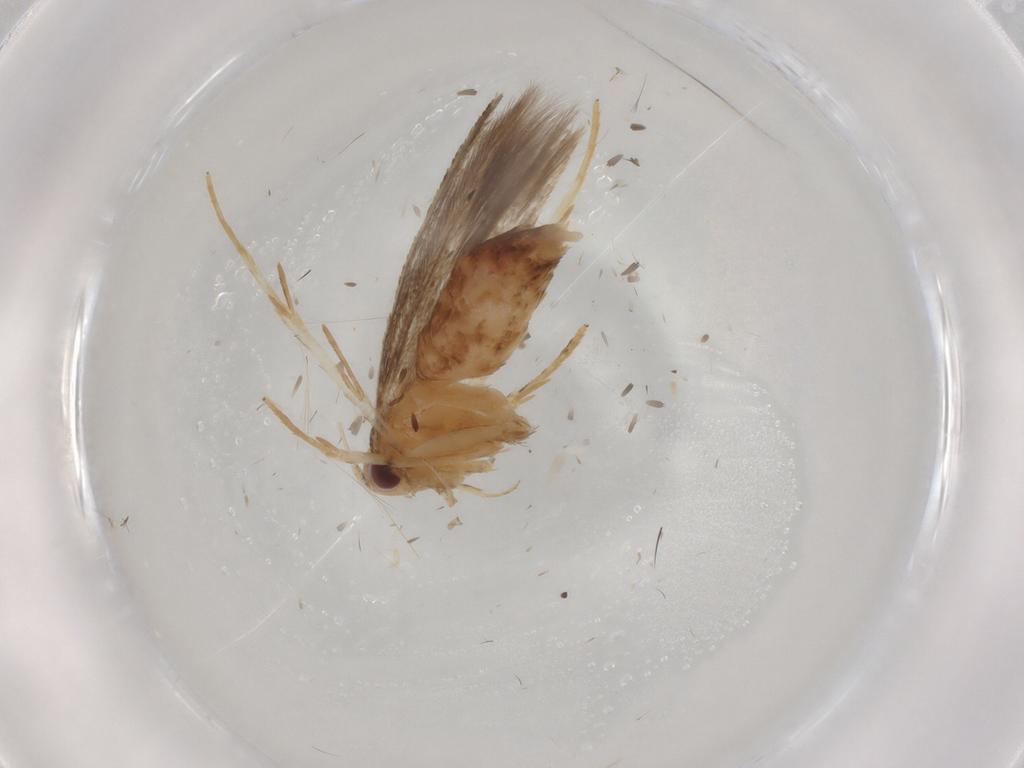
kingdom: Animalia
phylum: Arthropoda
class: Insecta
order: Lepidoptera
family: Cosmopterigidae
